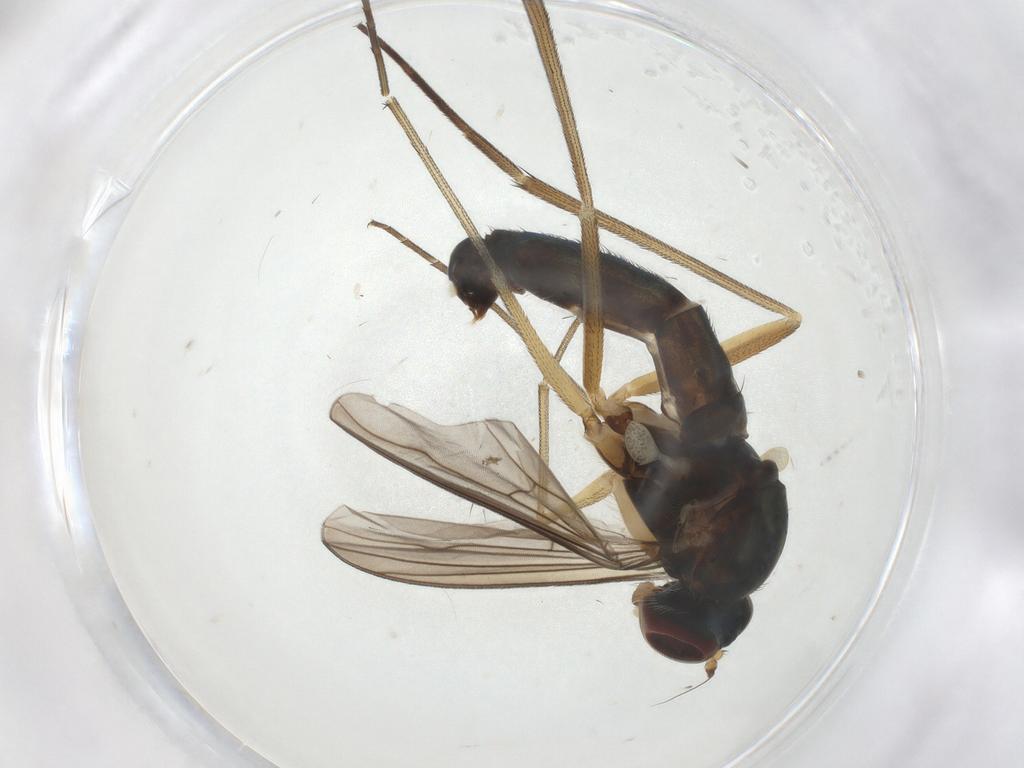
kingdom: Animalia
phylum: Arthropoda
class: Insecta
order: Diptera
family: Dolichopodidae
